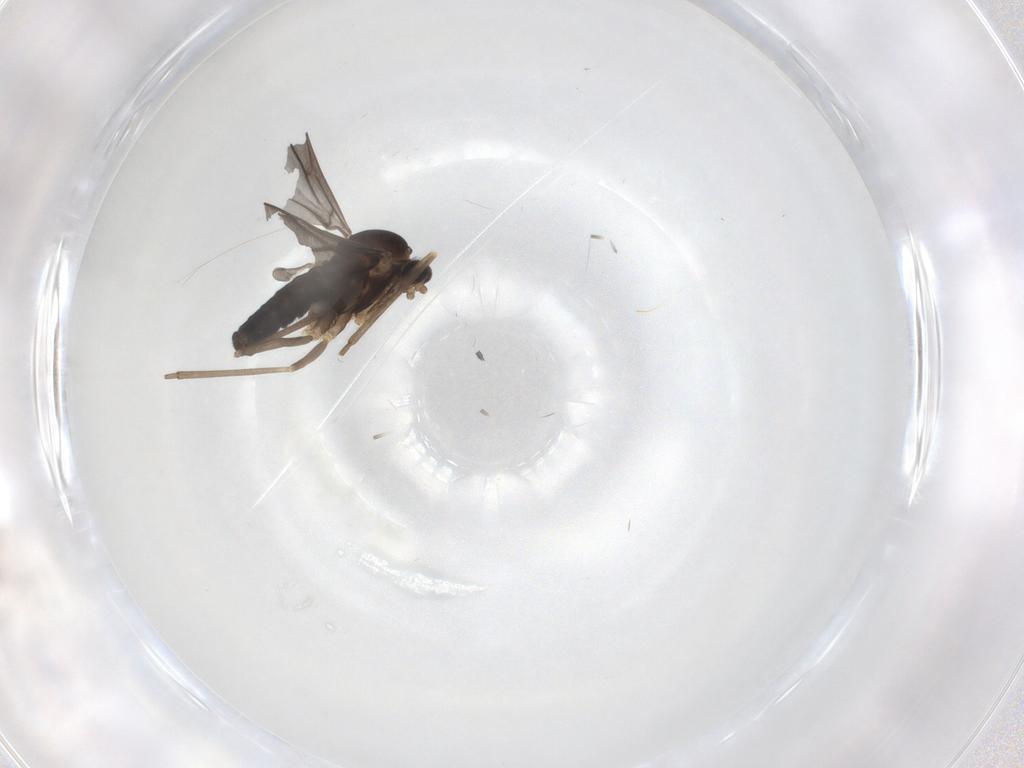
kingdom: Animalia
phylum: Arthropoda
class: Insecta
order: Diptera
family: Cecidomyiidae
